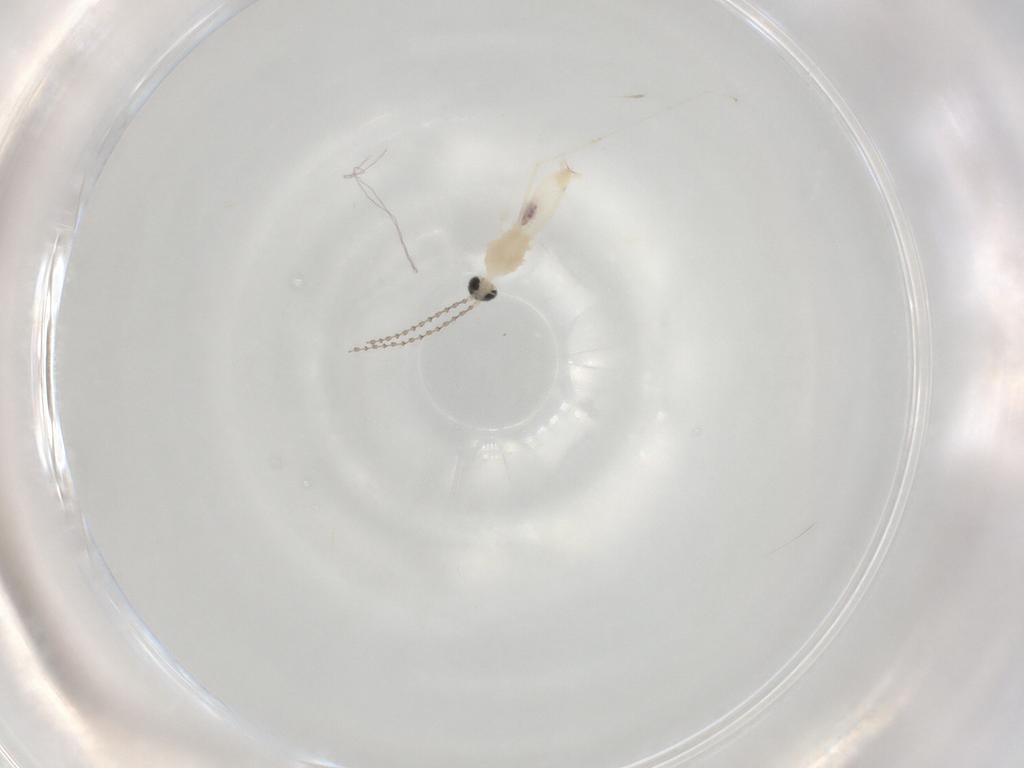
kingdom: Animalia
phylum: Arthropoda
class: Insecta
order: Diptera
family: Cecidomyiidae
